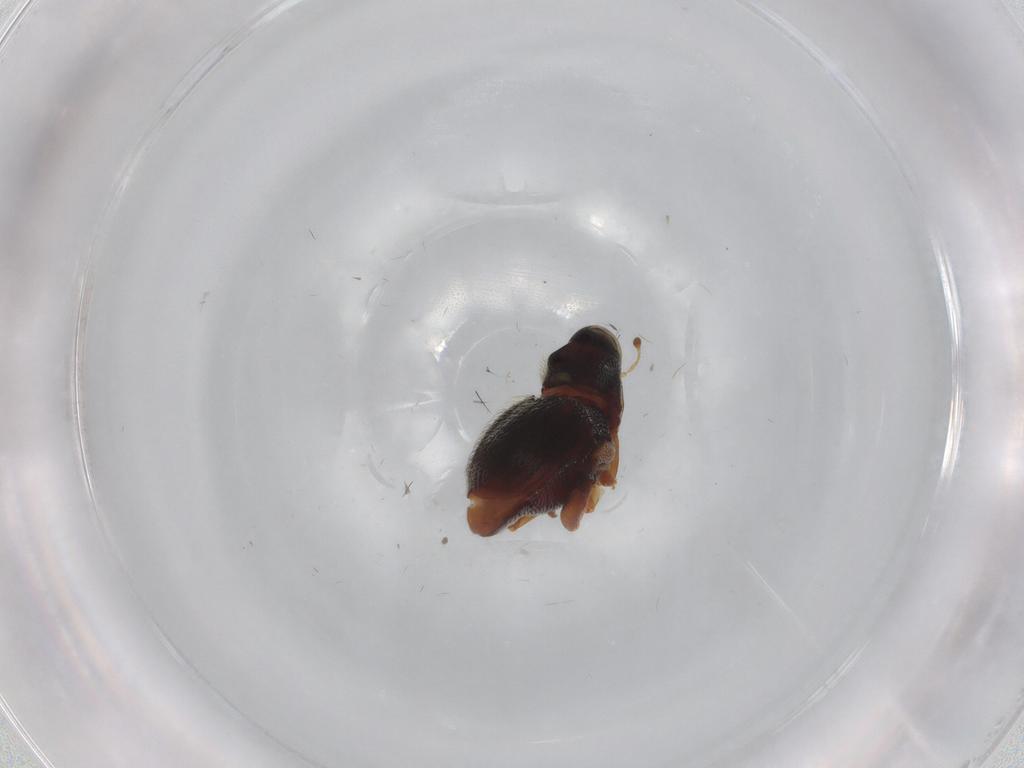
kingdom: Animalia
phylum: Arthropoda
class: Insecta
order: Coleoptera
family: Curculionidae
